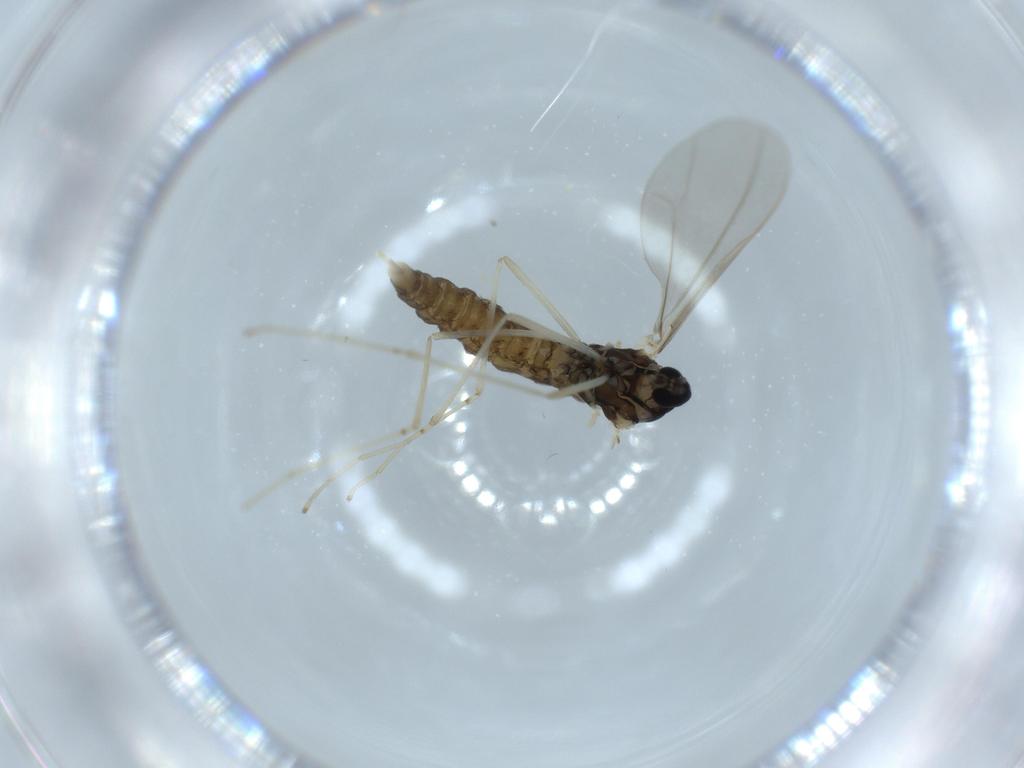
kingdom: Animalia
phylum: Arthropoda
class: Insecta
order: Diptera
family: Cecidomyiidae
